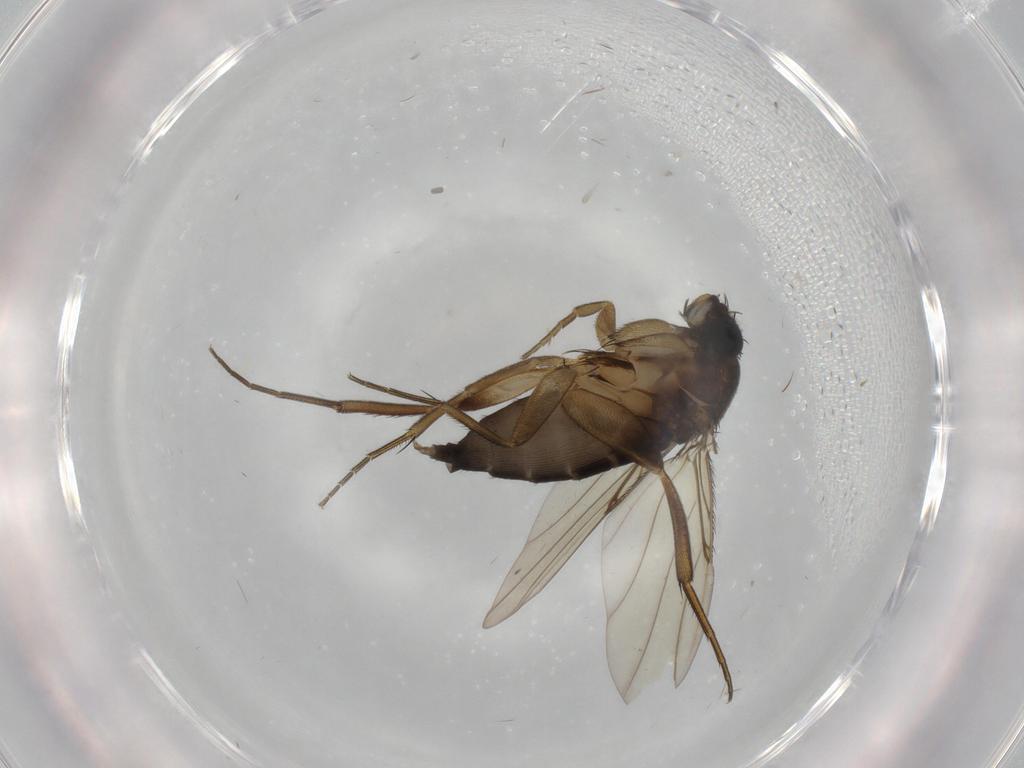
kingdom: Animalia
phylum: Arthropoda
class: Insecta
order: Diptera
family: Phoridae
